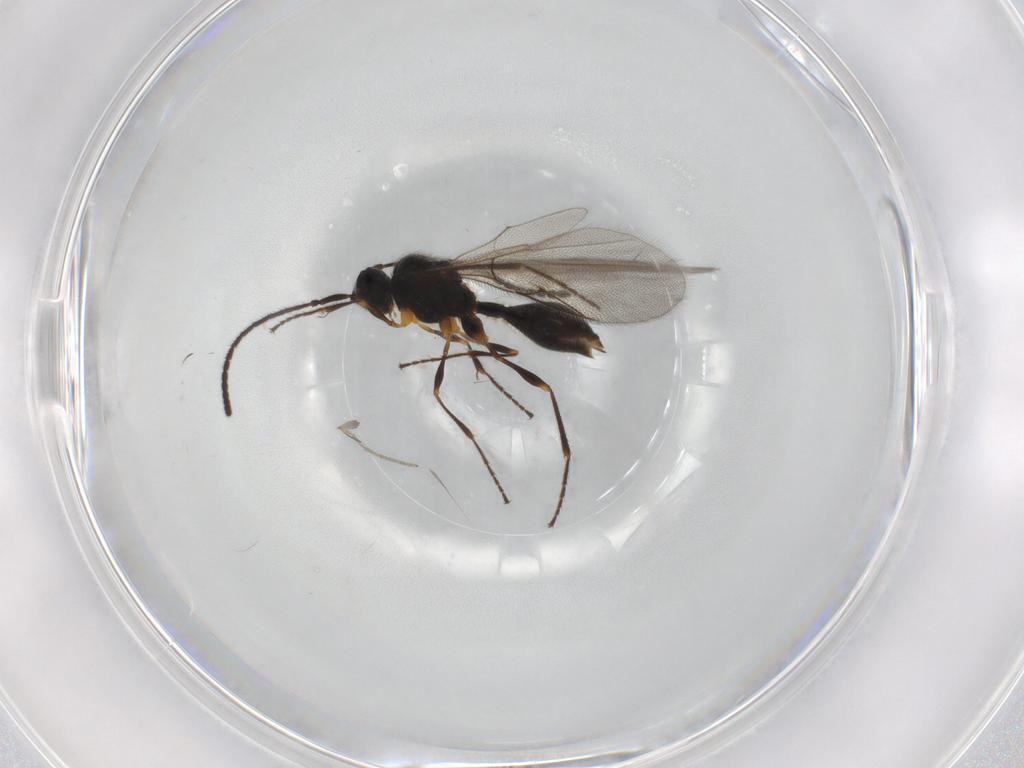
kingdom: Animalia
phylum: Arthropoda
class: Insecta
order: Hymenoptera
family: Diapriidae
